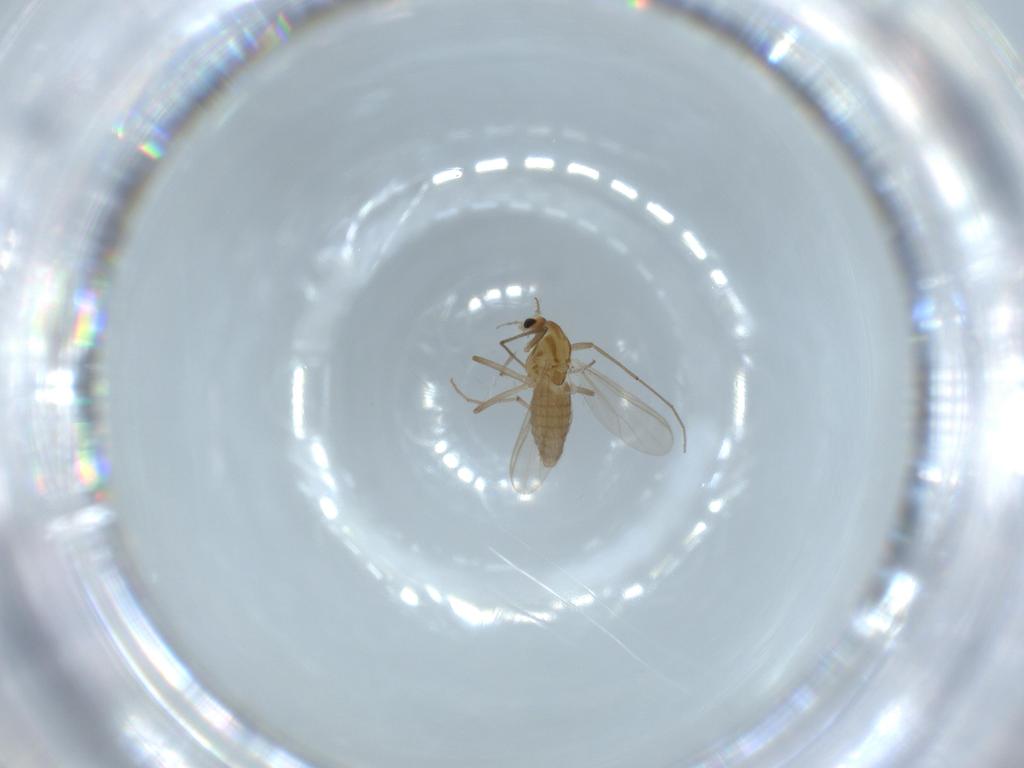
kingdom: Animalia
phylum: Arthropoda
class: Insecta
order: Diptera
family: Chironomidae
